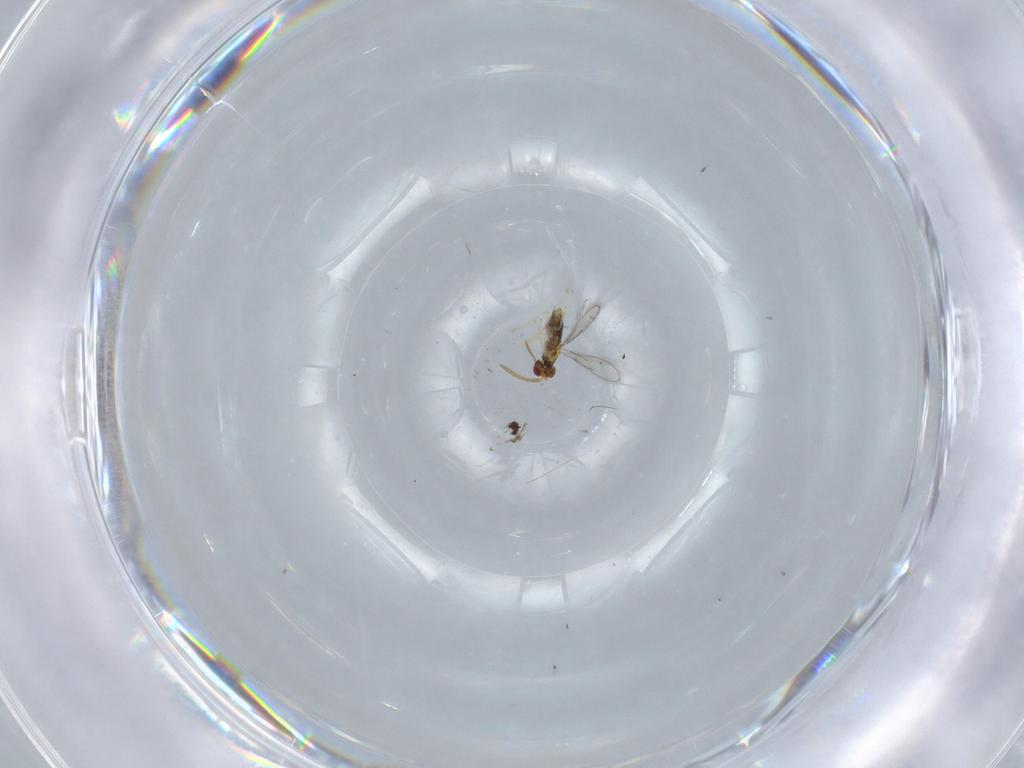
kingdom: Animalia
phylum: Arthropoda
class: Insecta
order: Hymenoptera
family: Aphelinidae
